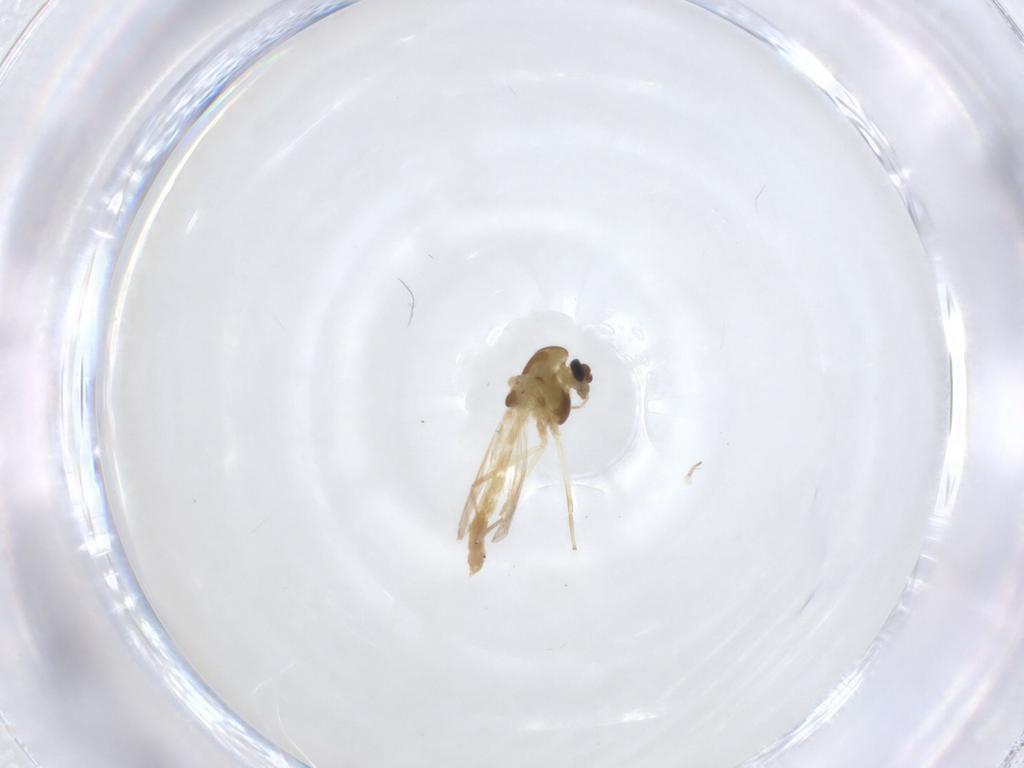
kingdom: Animalia
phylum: Arthropoda
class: Insecta
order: Diptera
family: Chironomidae
